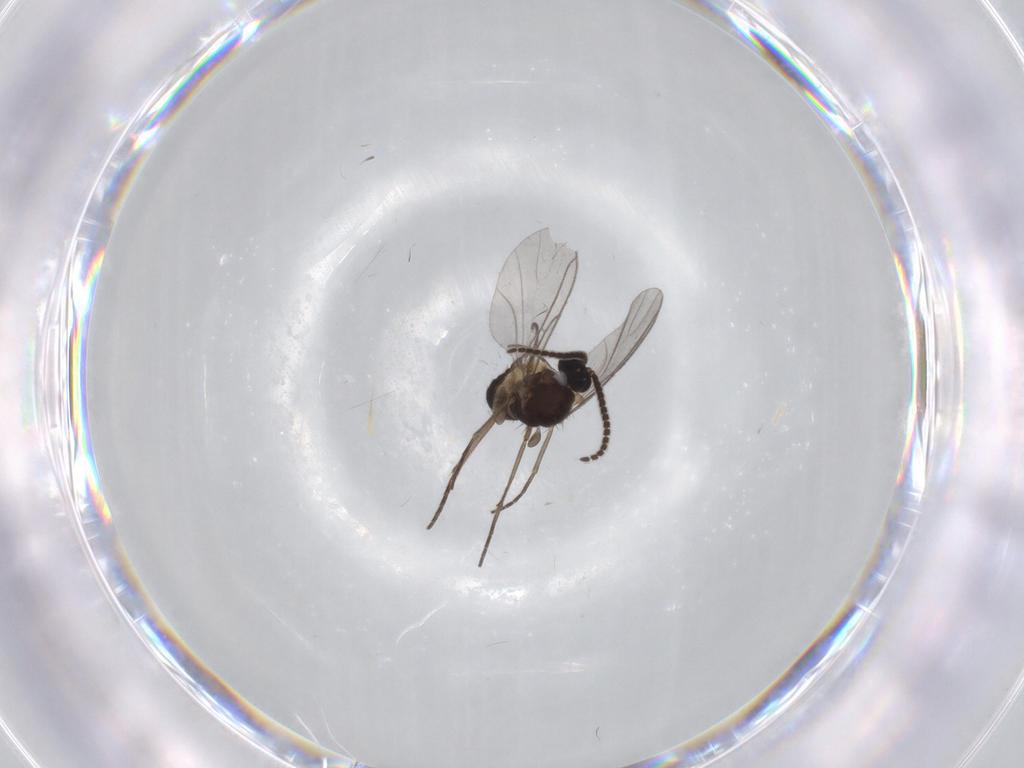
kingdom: Animalia
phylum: Arthropoda
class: Insecta
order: Diptera
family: Sciaridae
